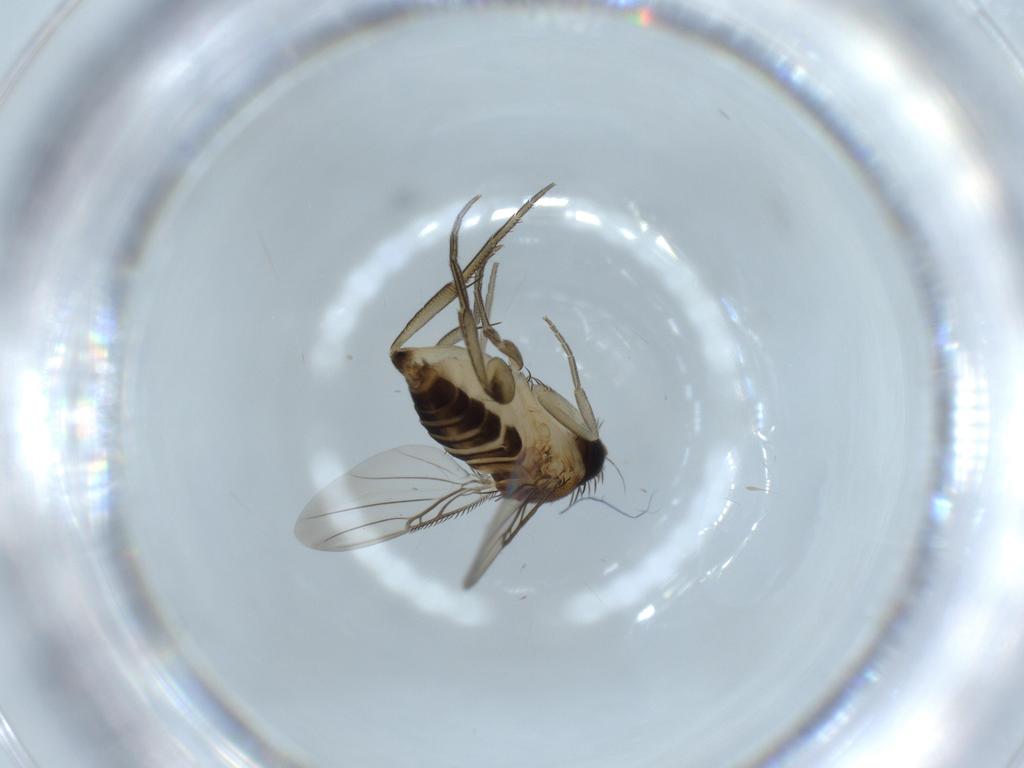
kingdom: Animalia
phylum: Arthropoda
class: Insecta
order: Diptera
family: Phoridae
